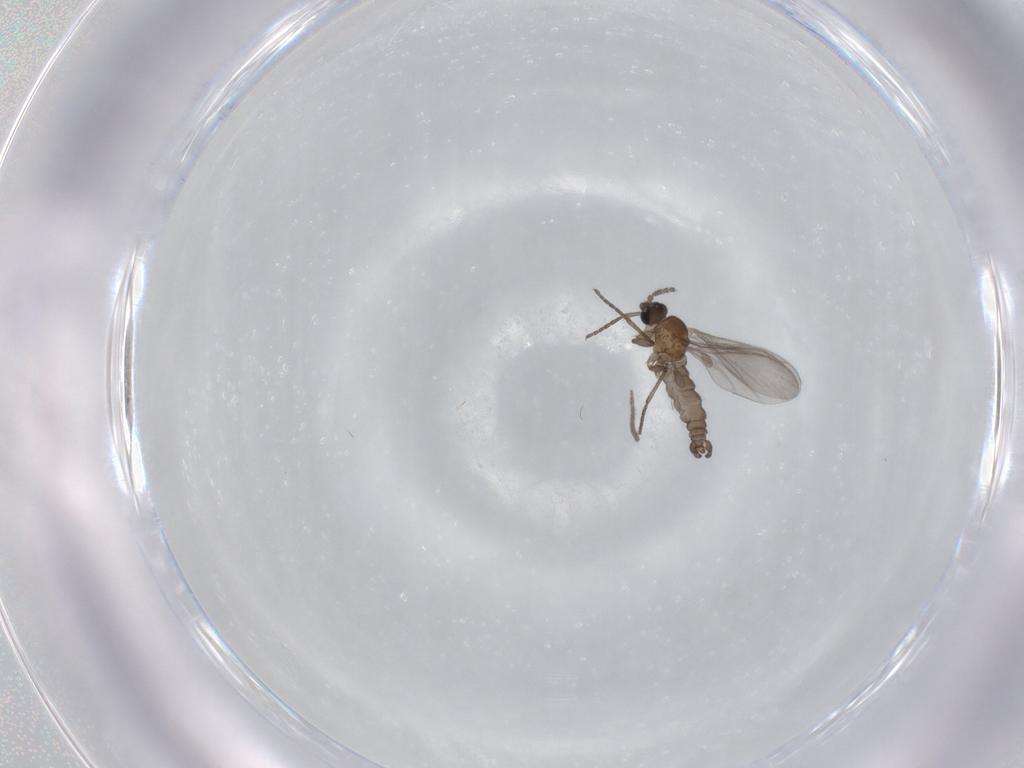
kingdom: Animalia
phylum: Arthropoda
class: Insecta
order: Diptera
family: Sciaridae
